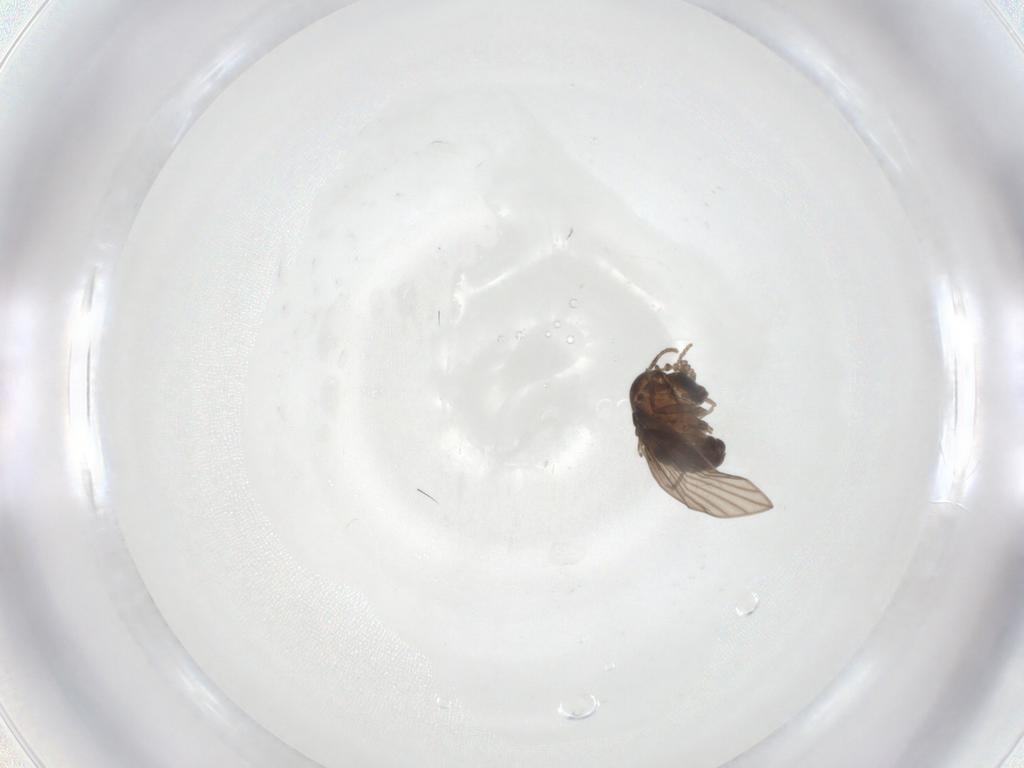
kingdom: Animalia
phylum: Arthropoda
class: Insecta
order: Diptera
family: Psychodidae
